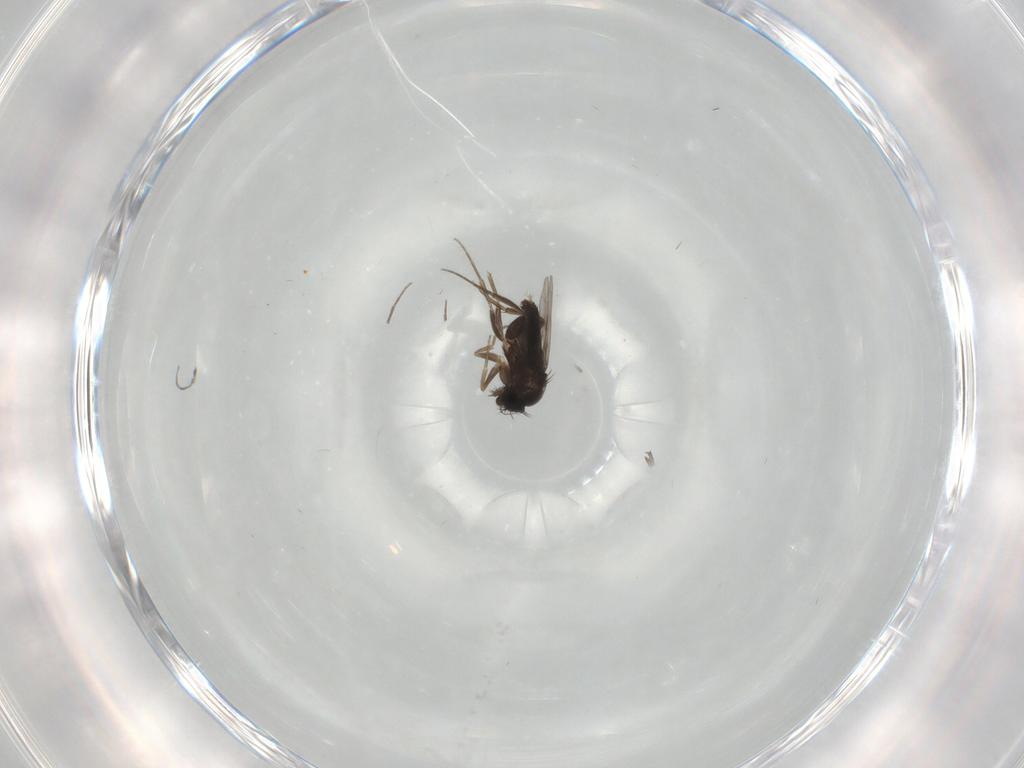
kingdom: Animalia
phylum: Arthropoda
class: Insecta
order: Diptera
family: Phoridae
